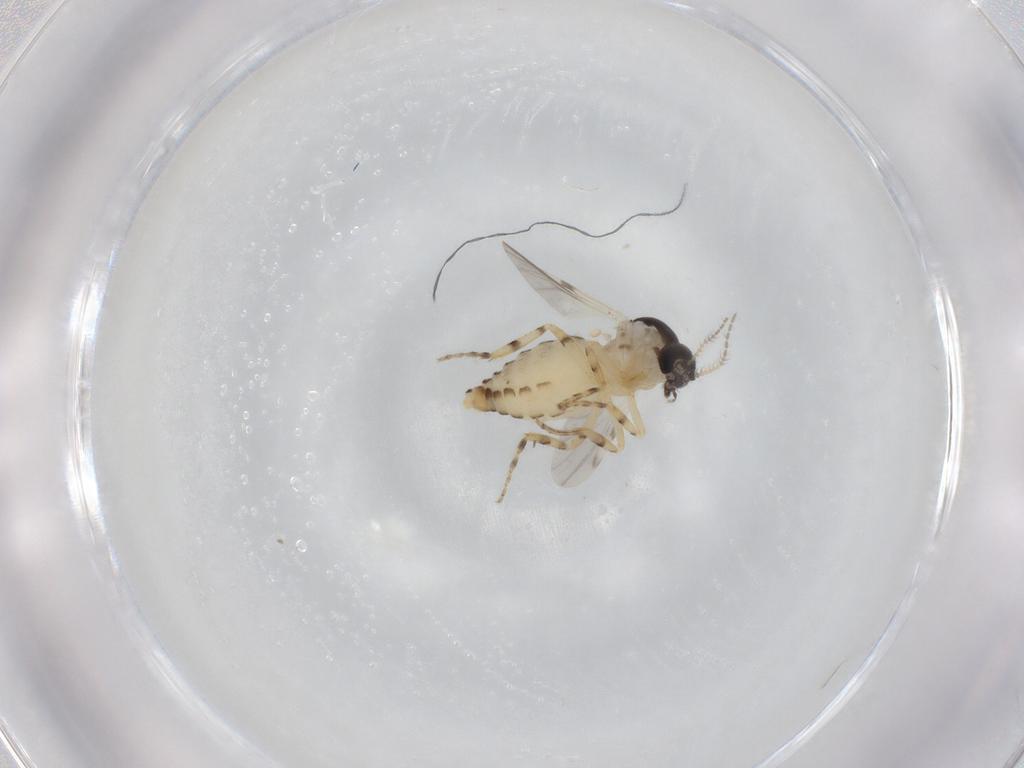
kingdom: Animalia
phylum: Arthropoda
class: Insecta
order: Diptera
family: Ceratopogonidae
